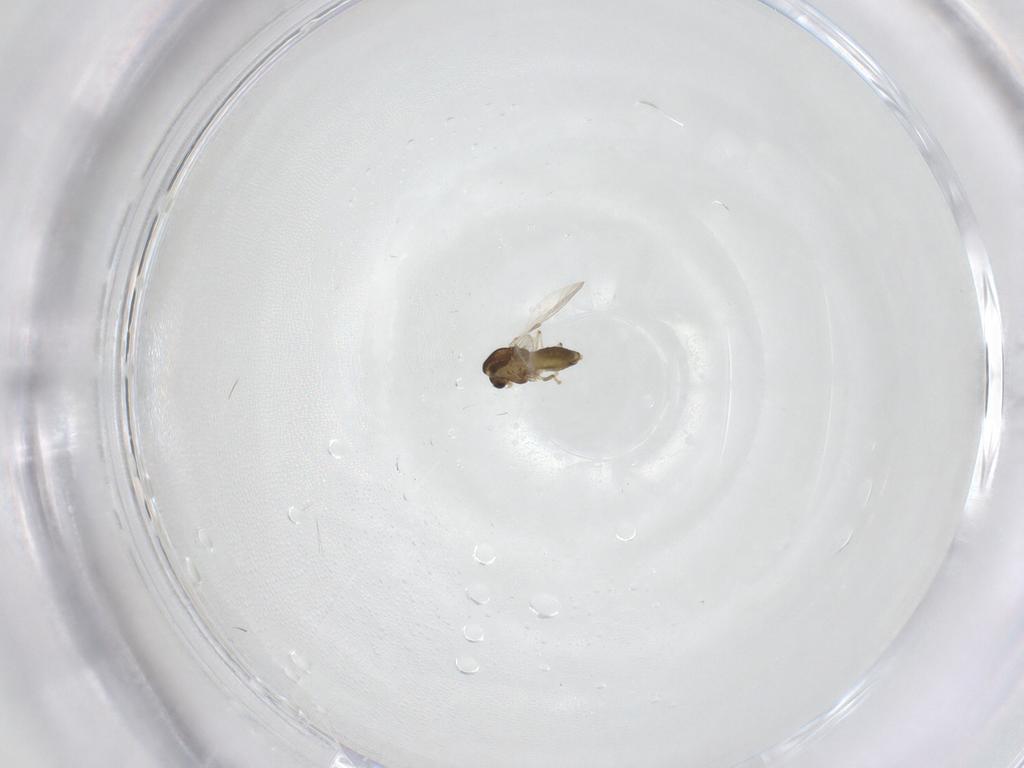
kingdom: Animalia
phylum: Arthropoda
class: Insecta
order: Diptera
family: Chironomidae
